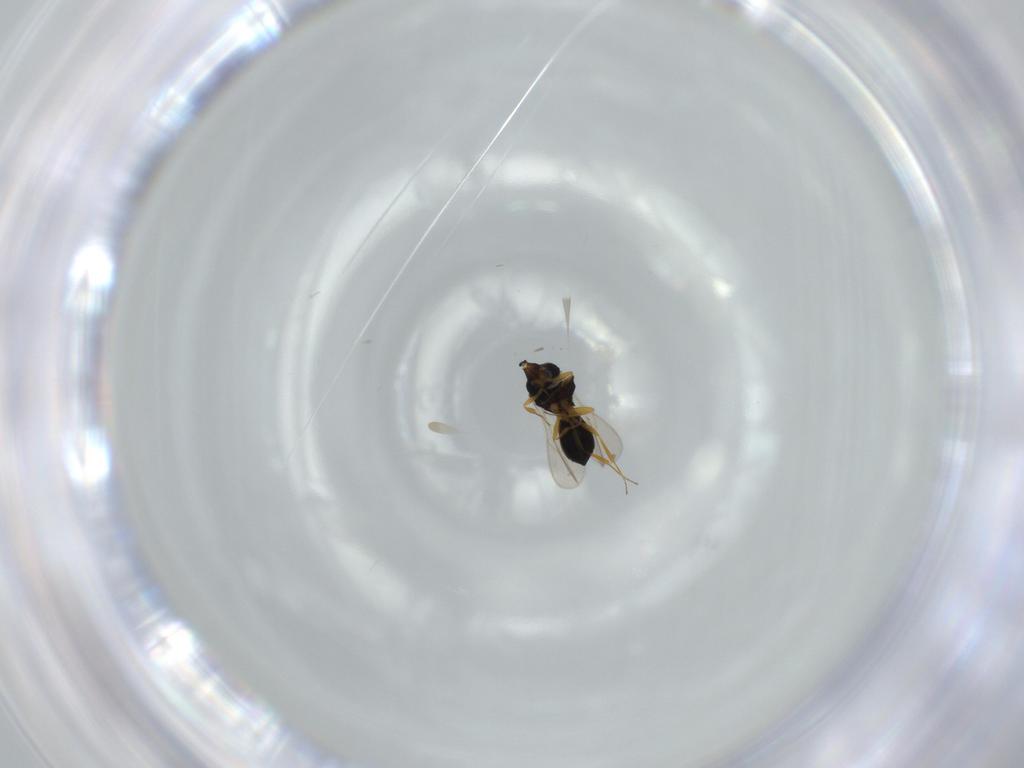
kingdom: Animalia
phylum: Arthropoda
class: Insecta
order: Hymenoptera
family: Scelionidae
